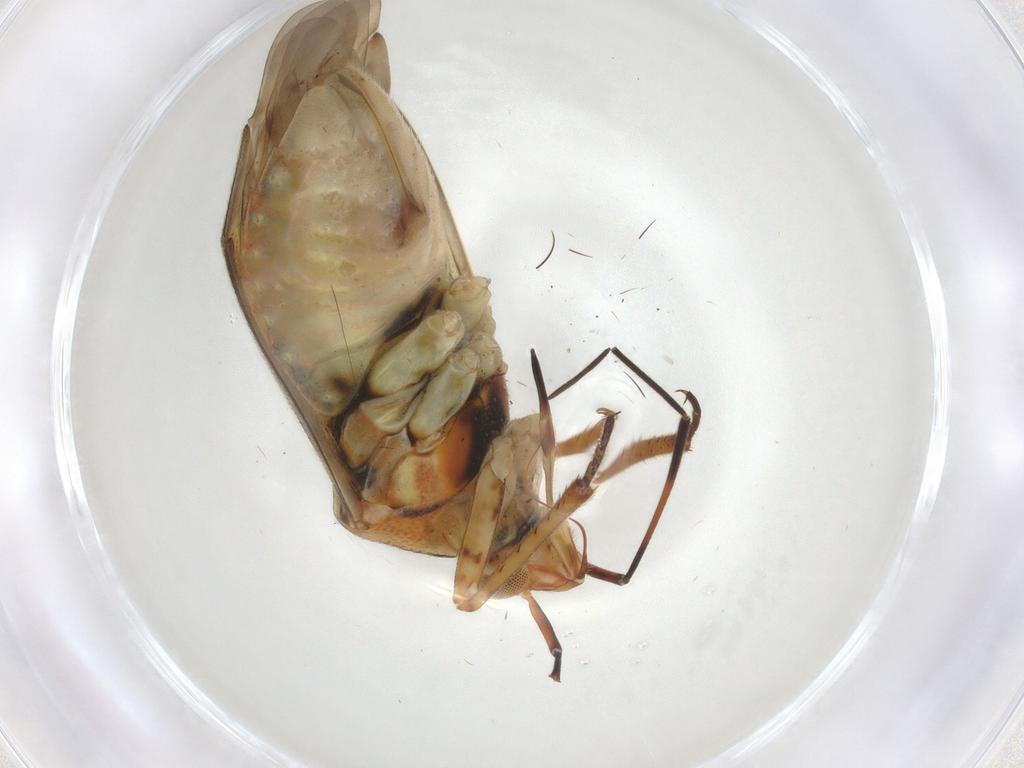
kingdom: Animalia
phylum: Arthropoda
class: Insecta
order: Hemiptera
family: Miridae
